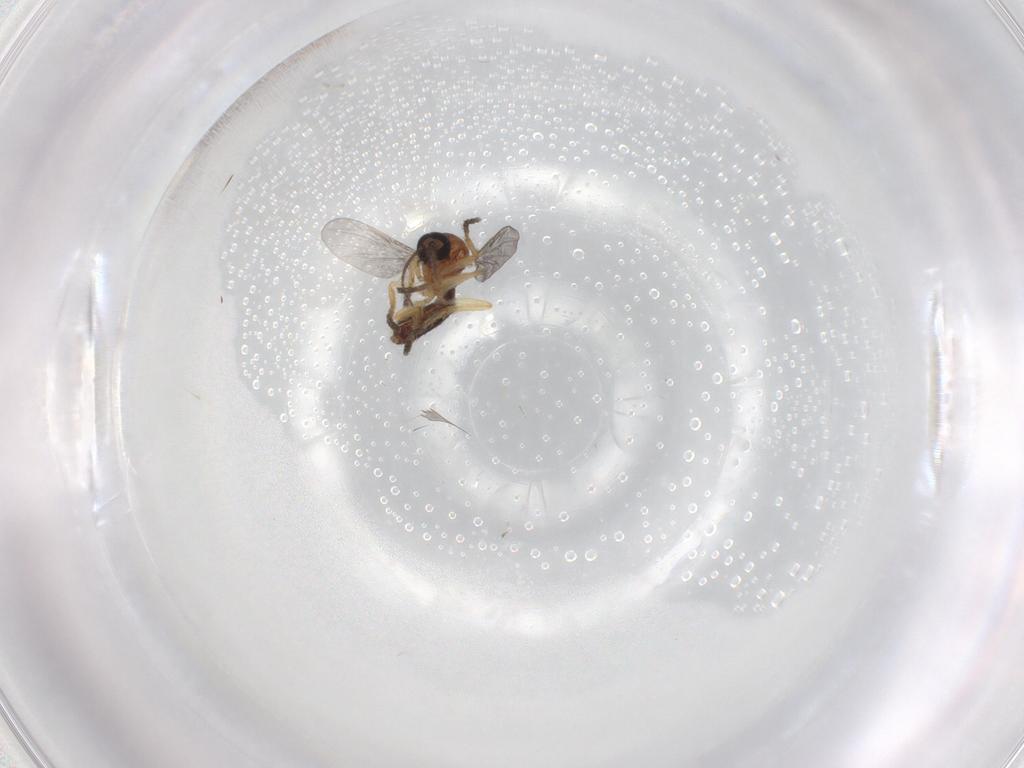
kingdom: Animalia
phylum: Arthropoda
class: Insecta
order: Diptera
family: Ceratopogonidae
